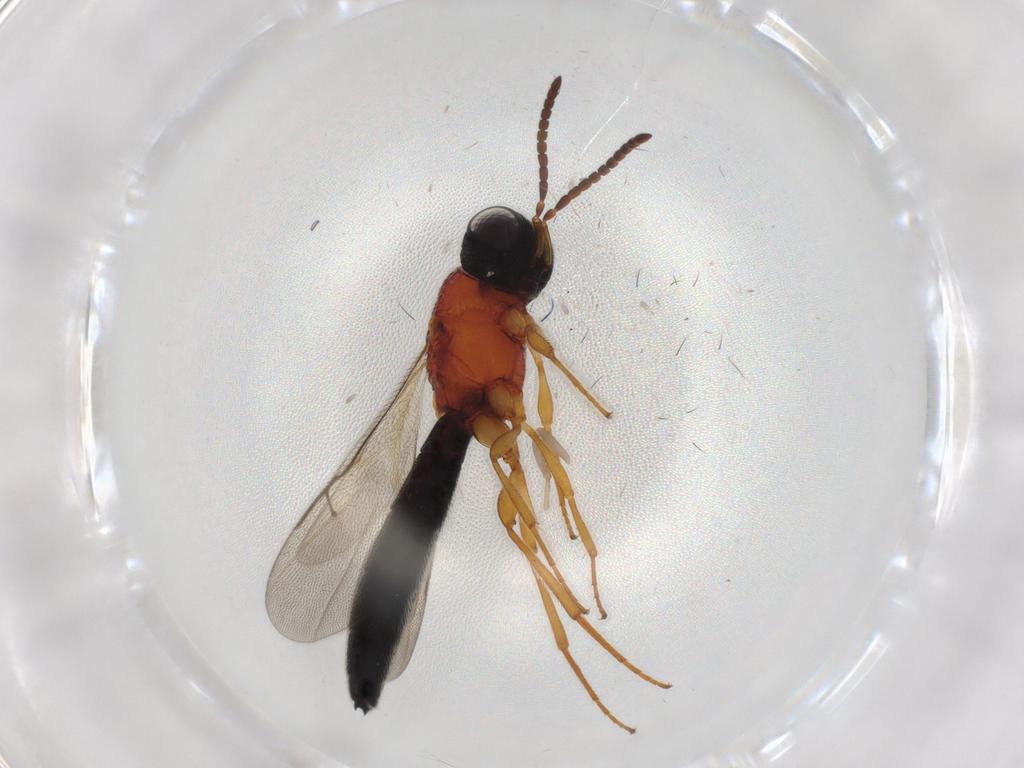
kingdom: Animalia
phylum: Arthropoda
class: Insecta
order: Hymenoptera
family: Scelionidae
